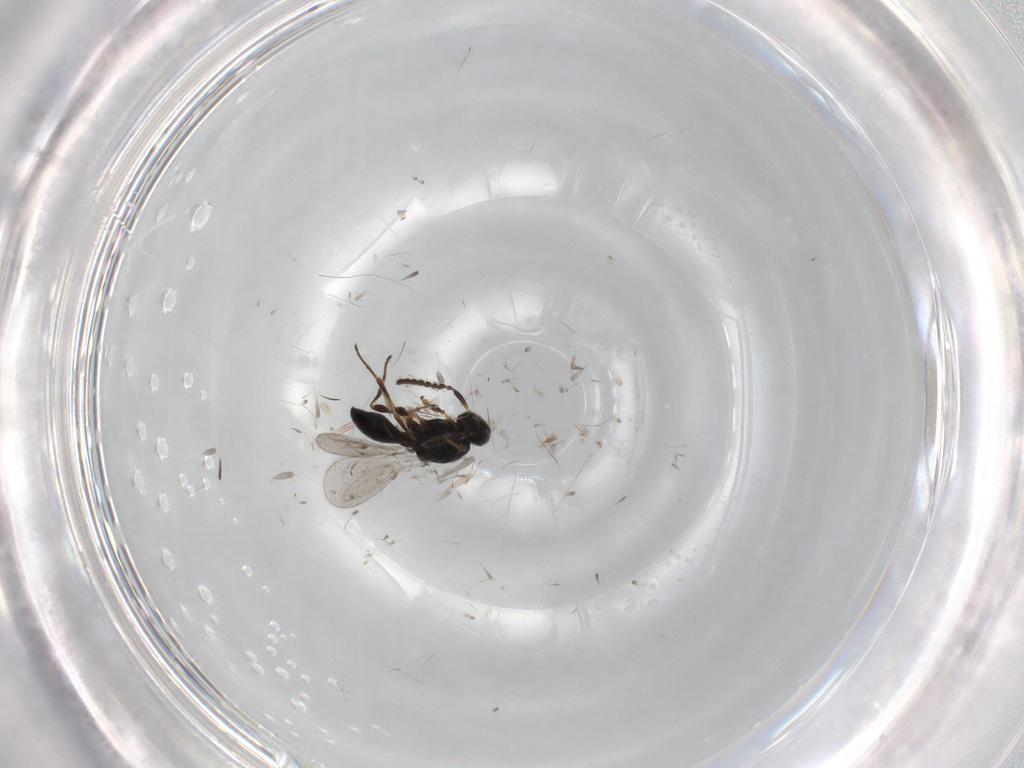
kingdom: Animalia
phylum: Arthropoda
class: Insecta
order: Hymenoptera
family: Platygastridae
